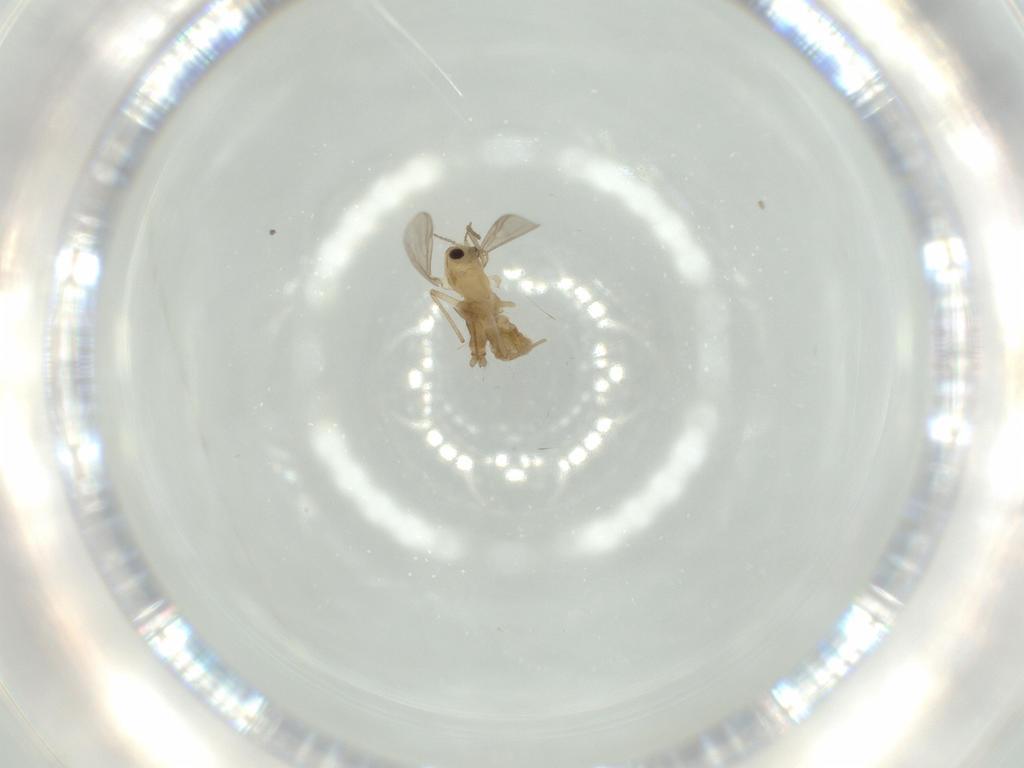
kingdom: Animalia
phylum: Arthropoda
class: Insecta
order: Diptera
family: Chironomidae
